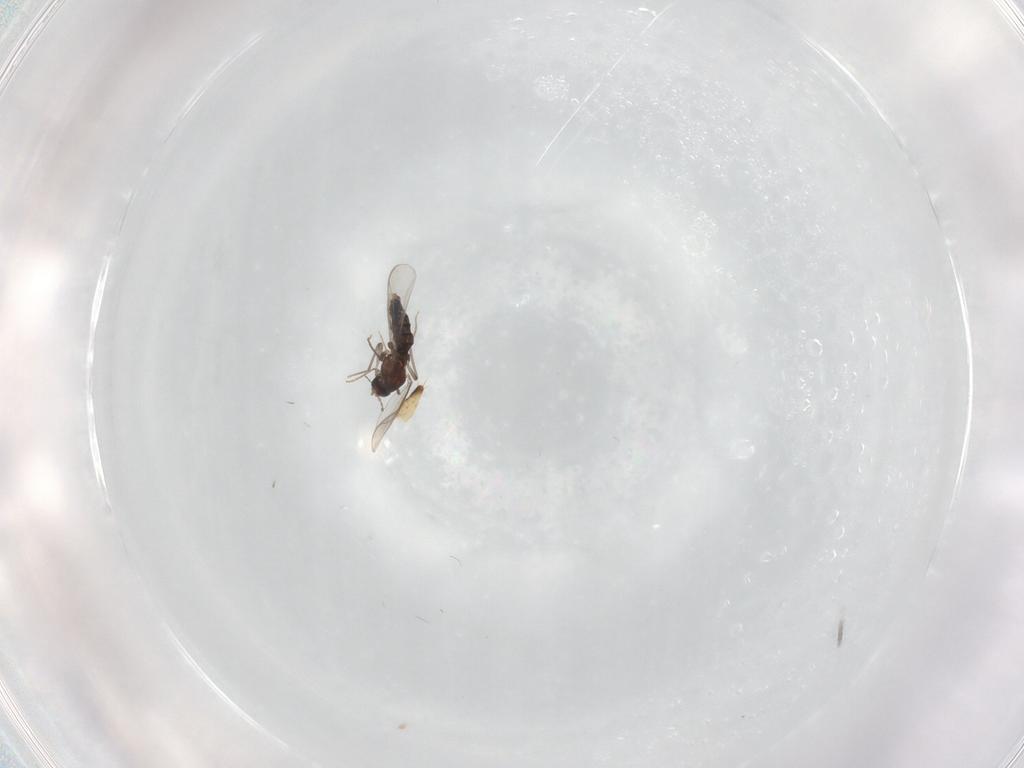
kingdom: Animalia
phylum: Arthropoda
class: Insecta
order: Diptera
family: Chironomidae
